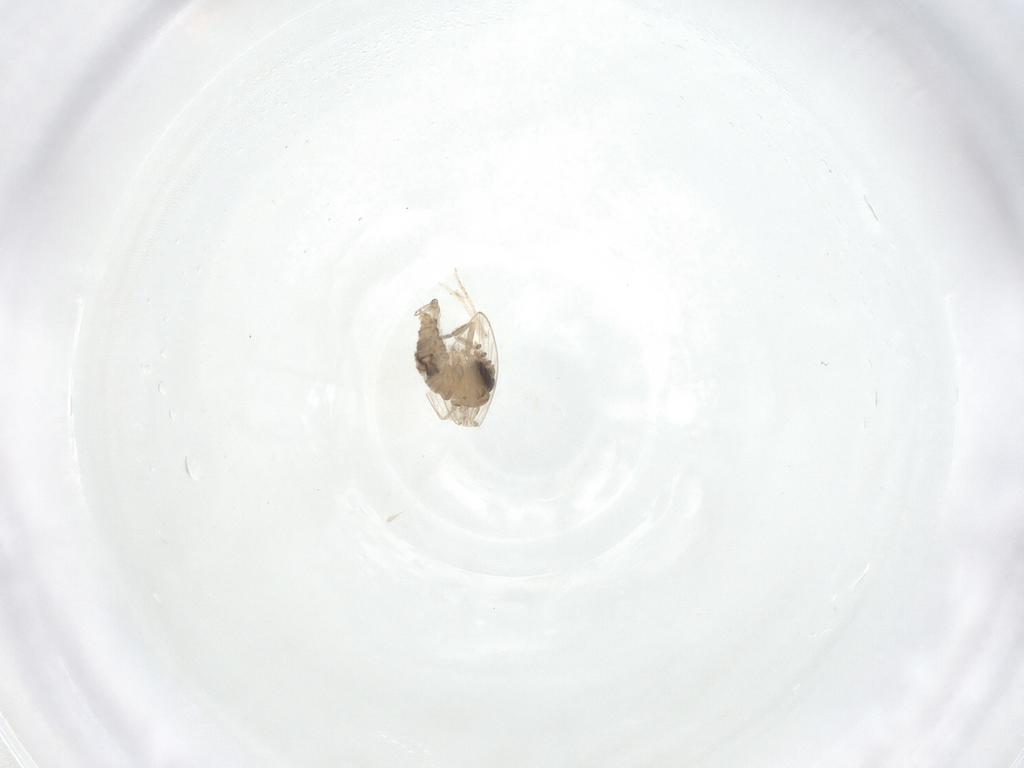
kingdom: Animalia
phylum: Arthropoda
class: Insecta
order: Diptera
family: Psychodidae
